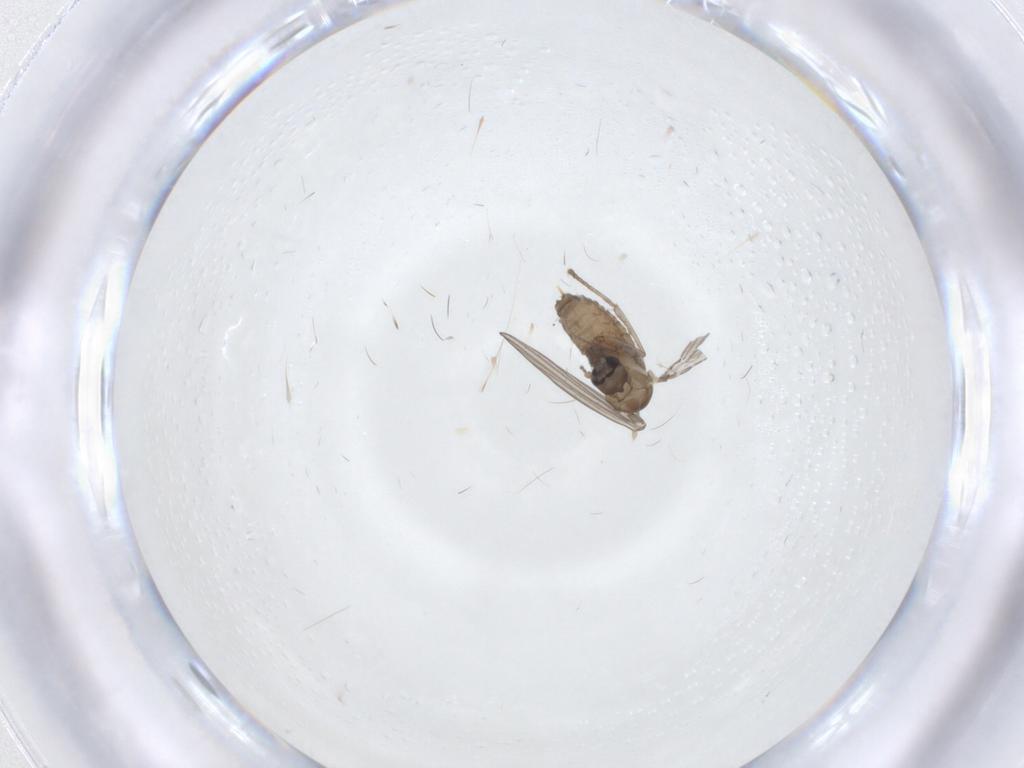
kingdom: Animalia
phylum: Arthropoda
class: Insecta
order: Diptera
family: Psychodidae
